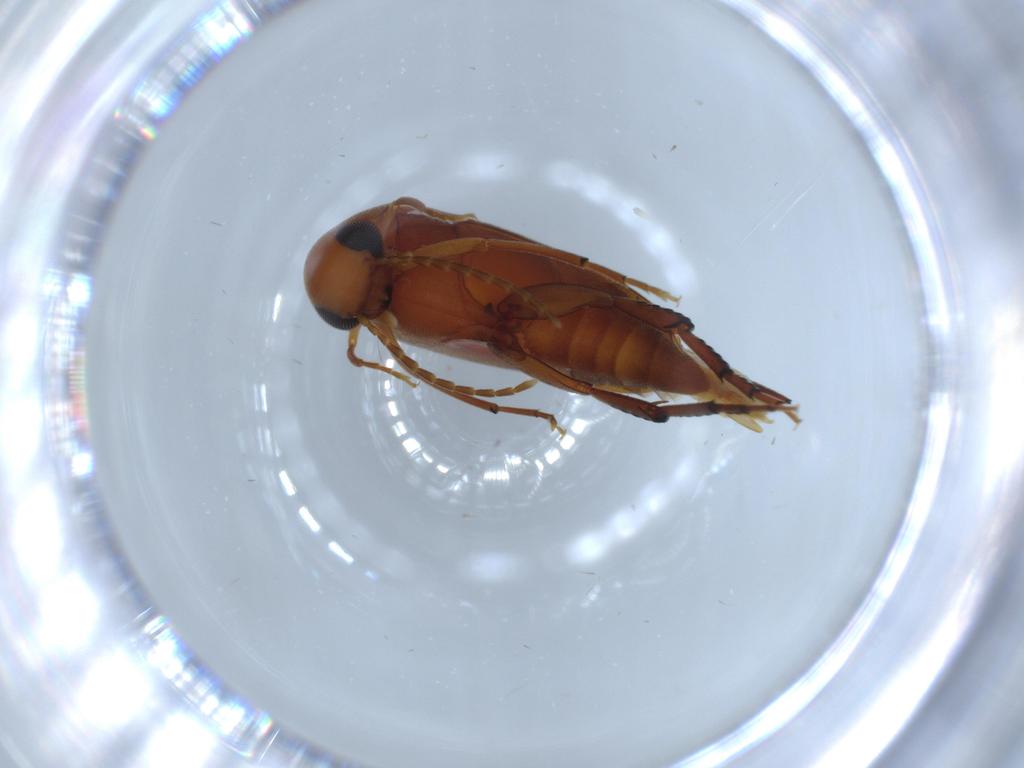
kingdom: Animalia
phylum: Arthropoda
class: Insecta
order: Coleoptera
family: Mordellidae
